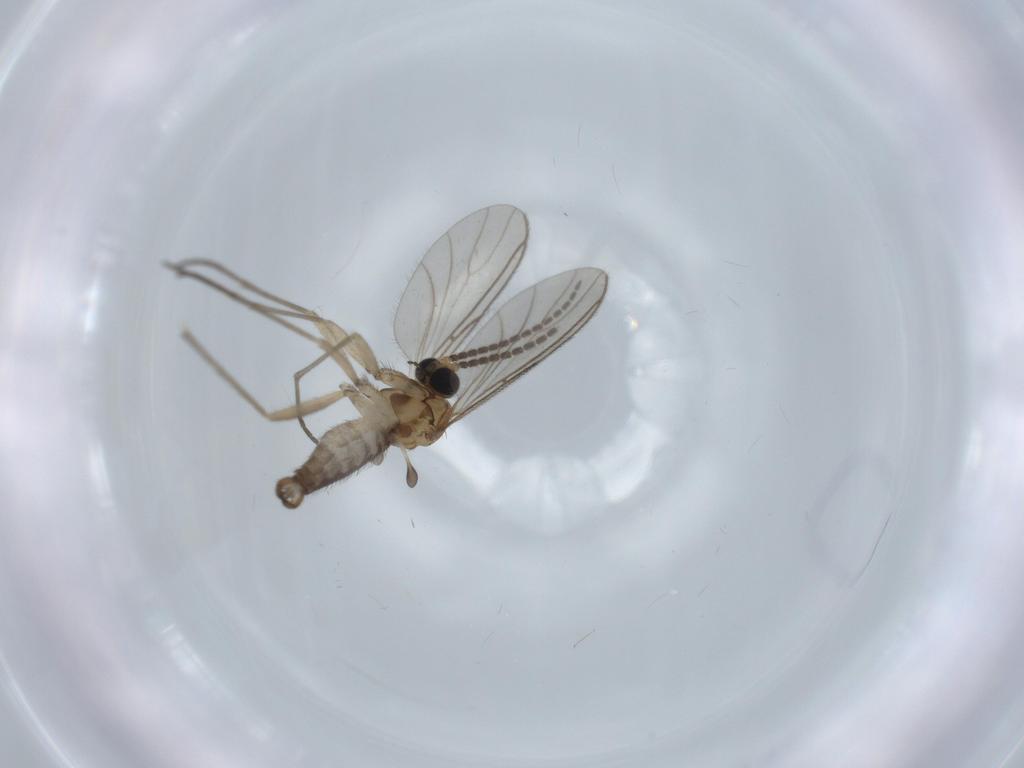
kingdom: Animalia
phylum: Arthropoda
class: Insecta
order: Diptera
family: Sciaridae
